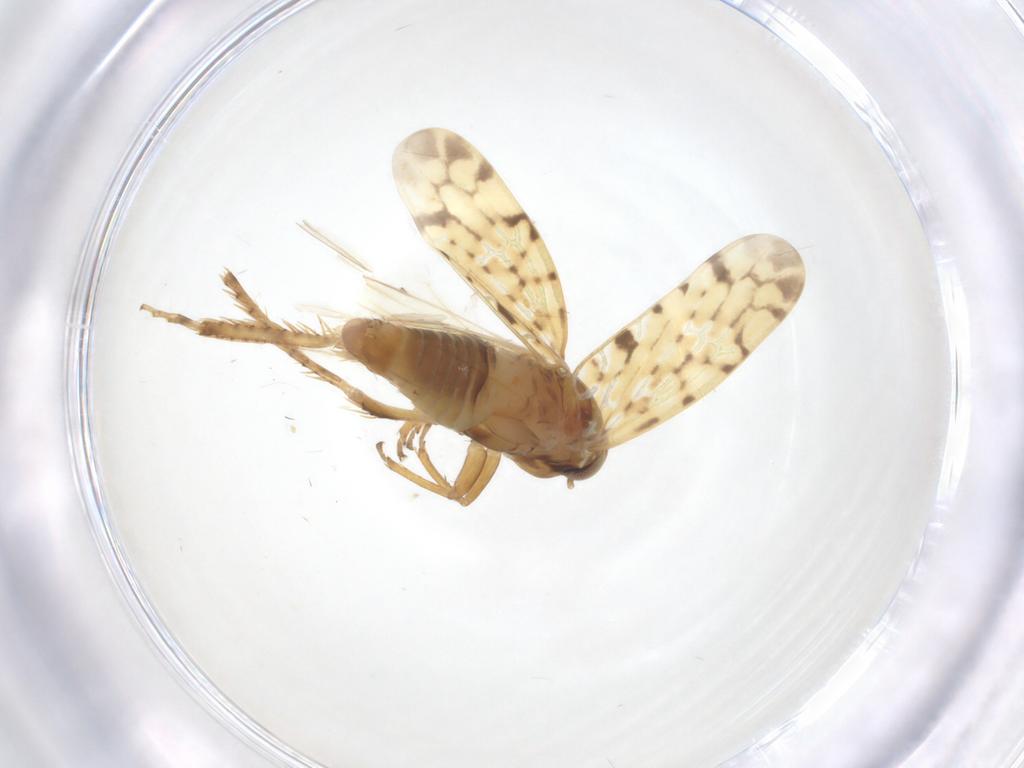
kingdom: Animalia
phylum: Arthropoda
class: Insecta
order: Hemiptera
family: Cicadellidae
